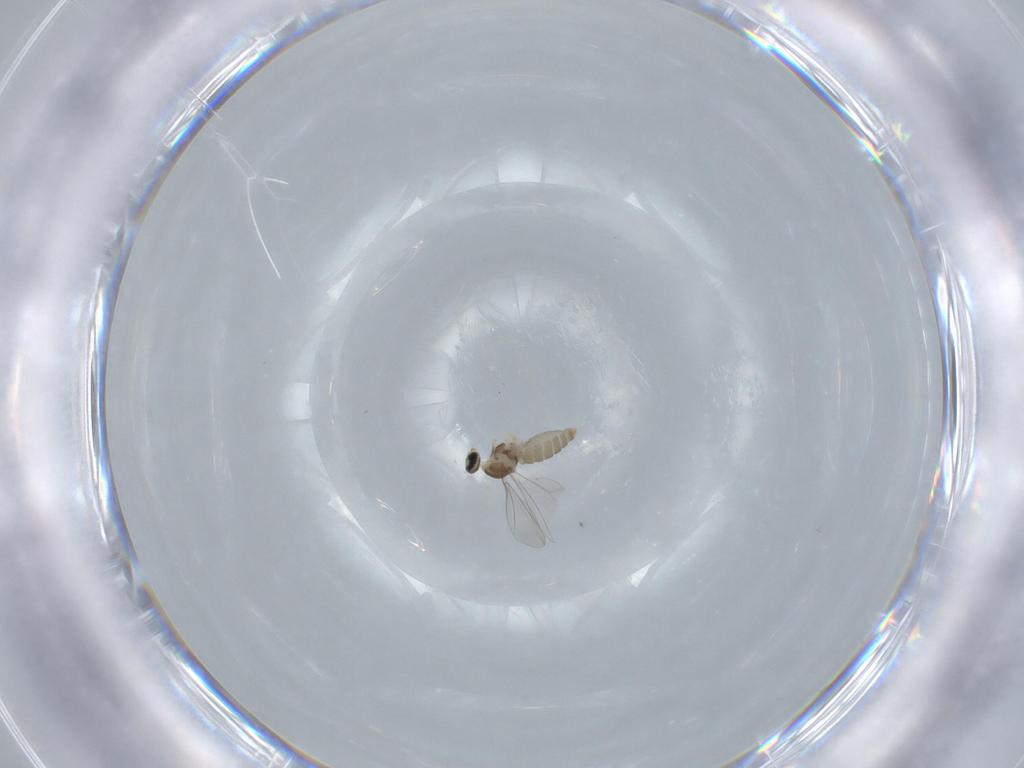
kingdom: Animalia
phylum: Arthropoda
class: Insecta
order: Diptera
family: Cecidomyiidae
